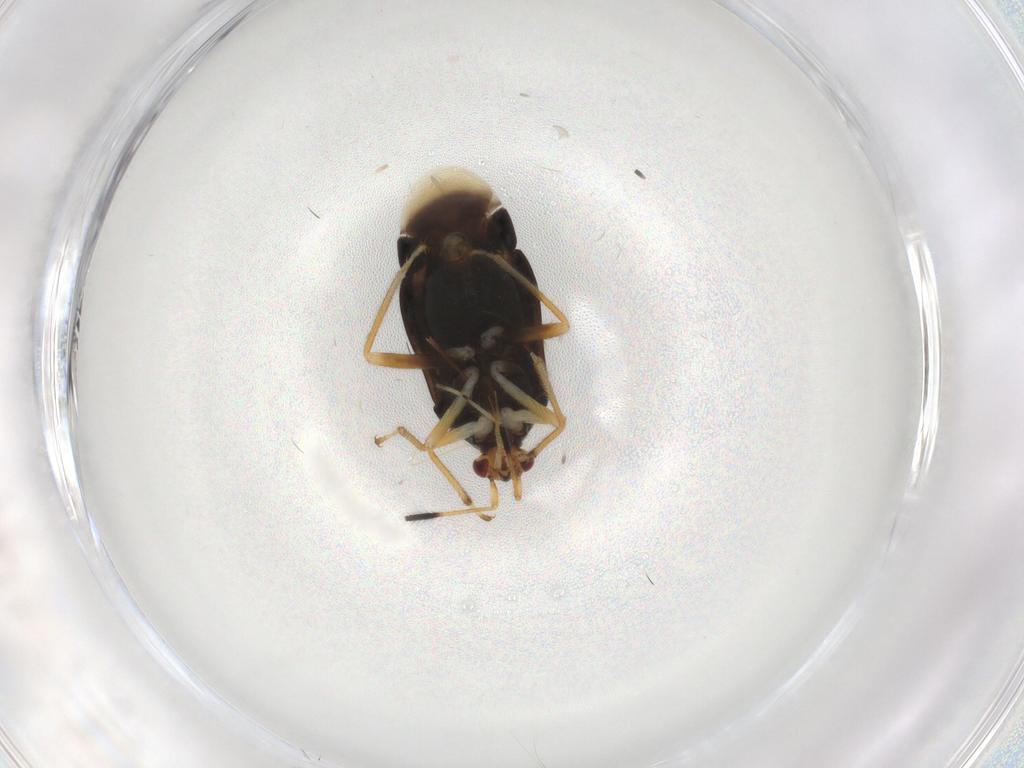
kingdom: Animalia
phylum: Arthropoda
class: Insecta
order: Hemiptera
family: Miridae
